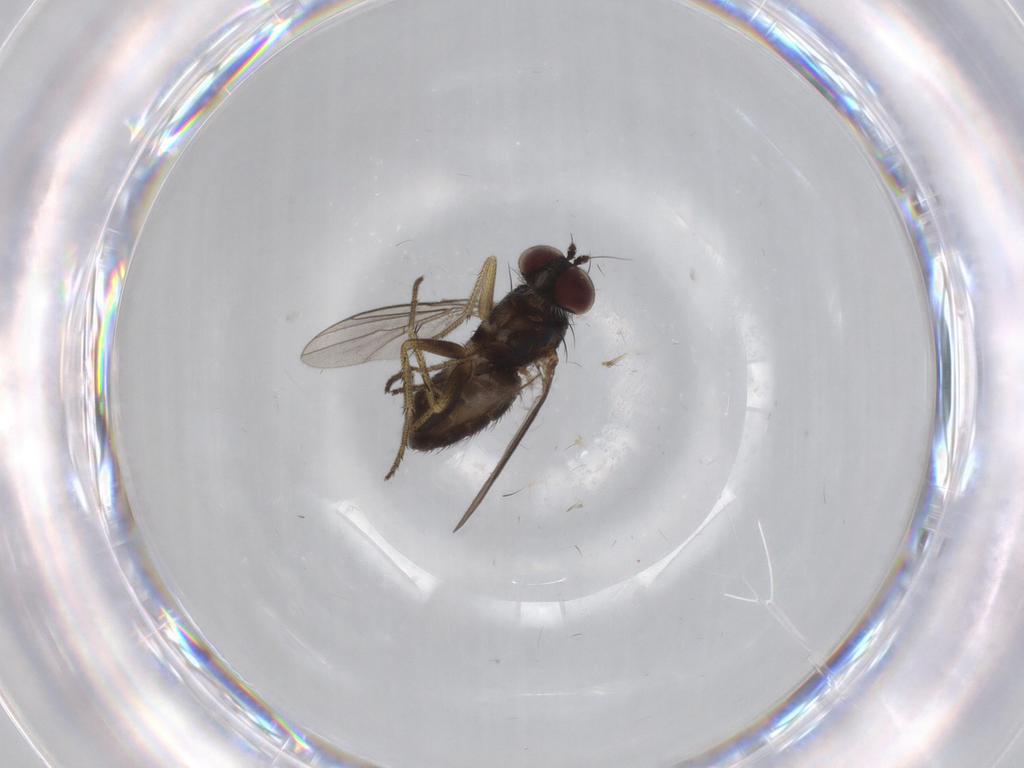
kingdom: Animalia
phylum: Arthropoda
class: Insecta
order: Diptera
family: Culicidae
